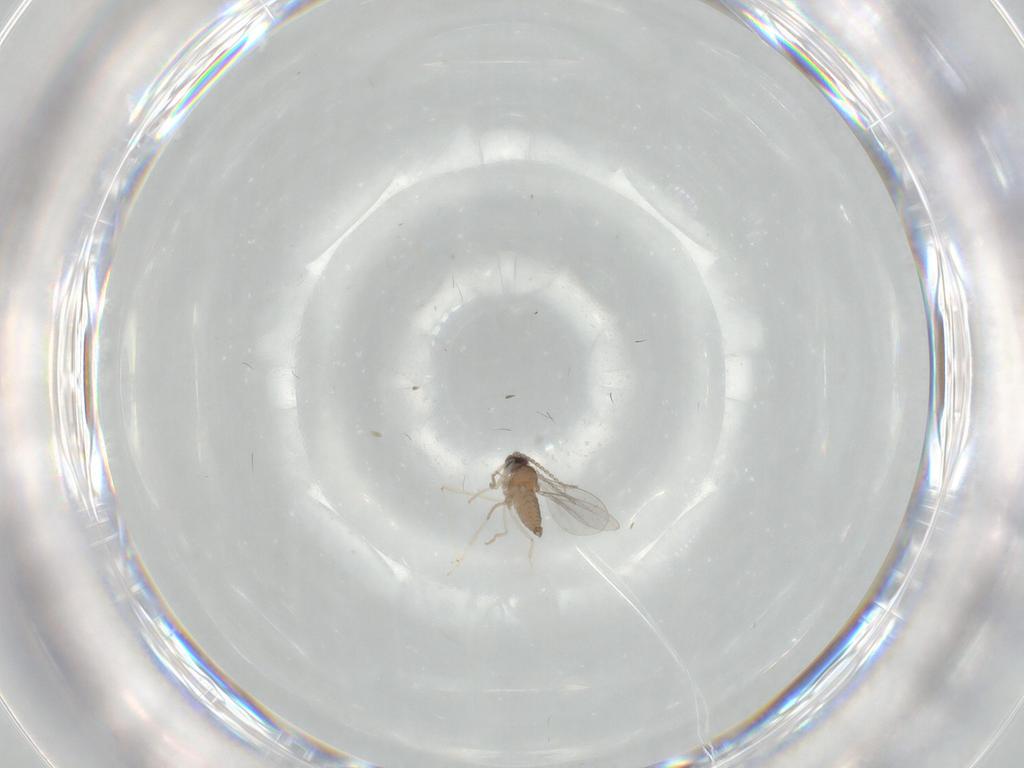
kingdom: Animalia
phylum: Arthropoda
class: Insecta
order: Diptera
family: Cecidomyiidae
